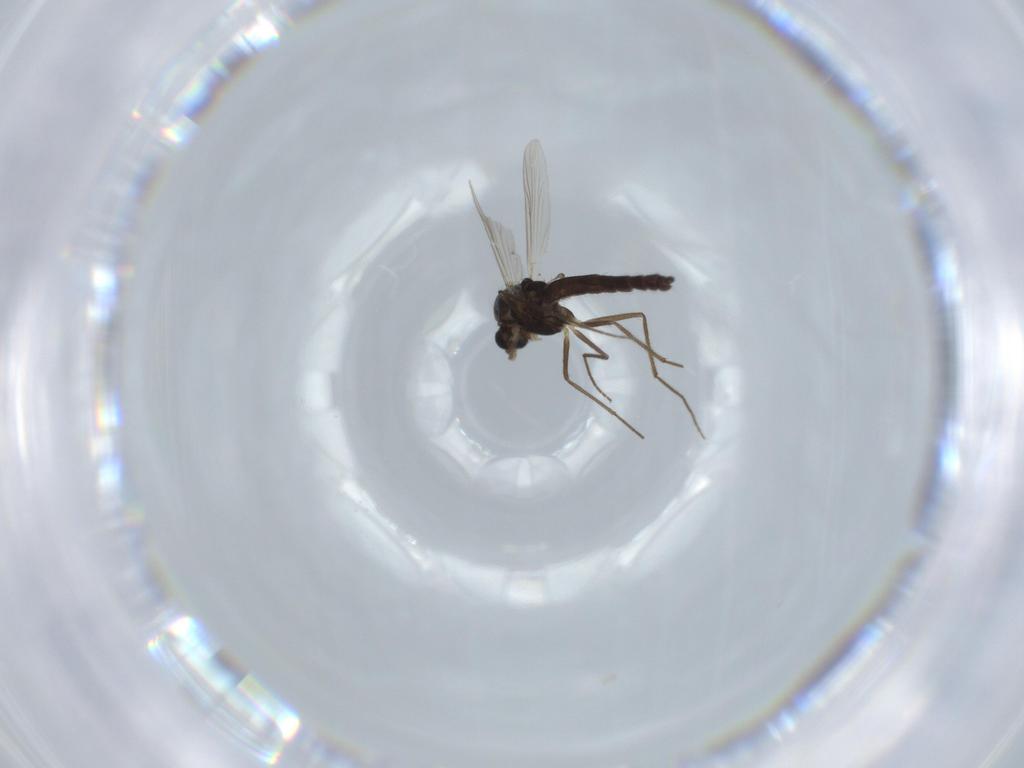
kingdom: Animalia
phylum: Arthropoda
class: Insecta
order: Diptera
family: Chironomidae
